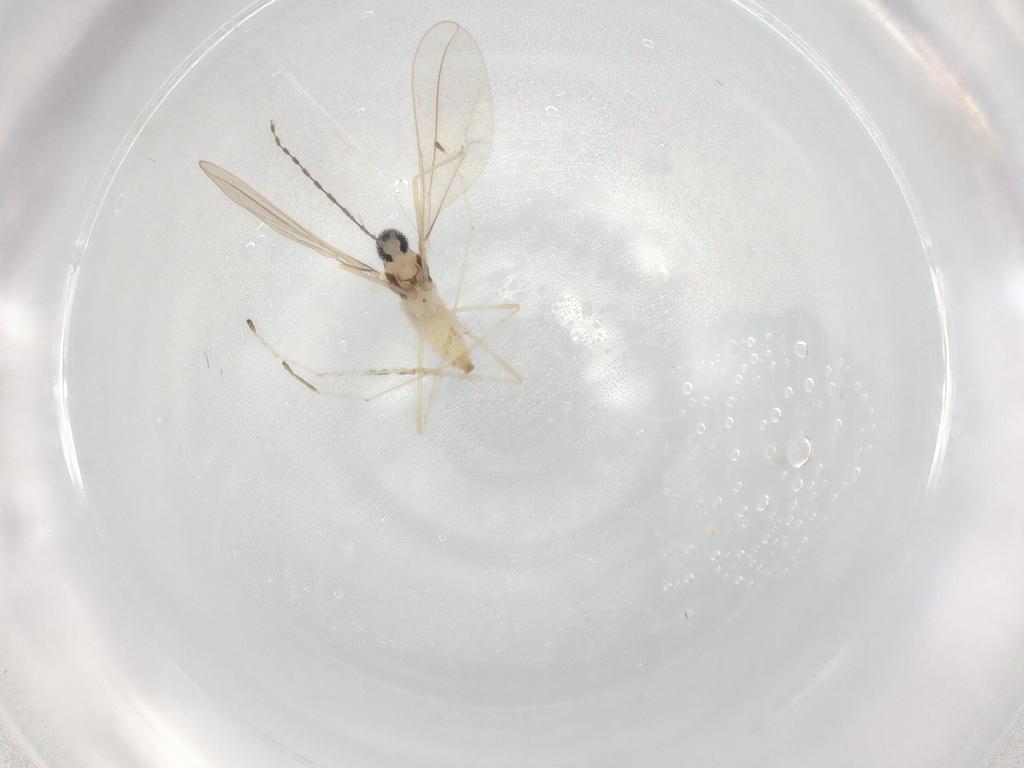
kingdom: Animalia
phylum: Arthropoda
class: Insecta
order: Diptera
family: Cecidomyiidae
